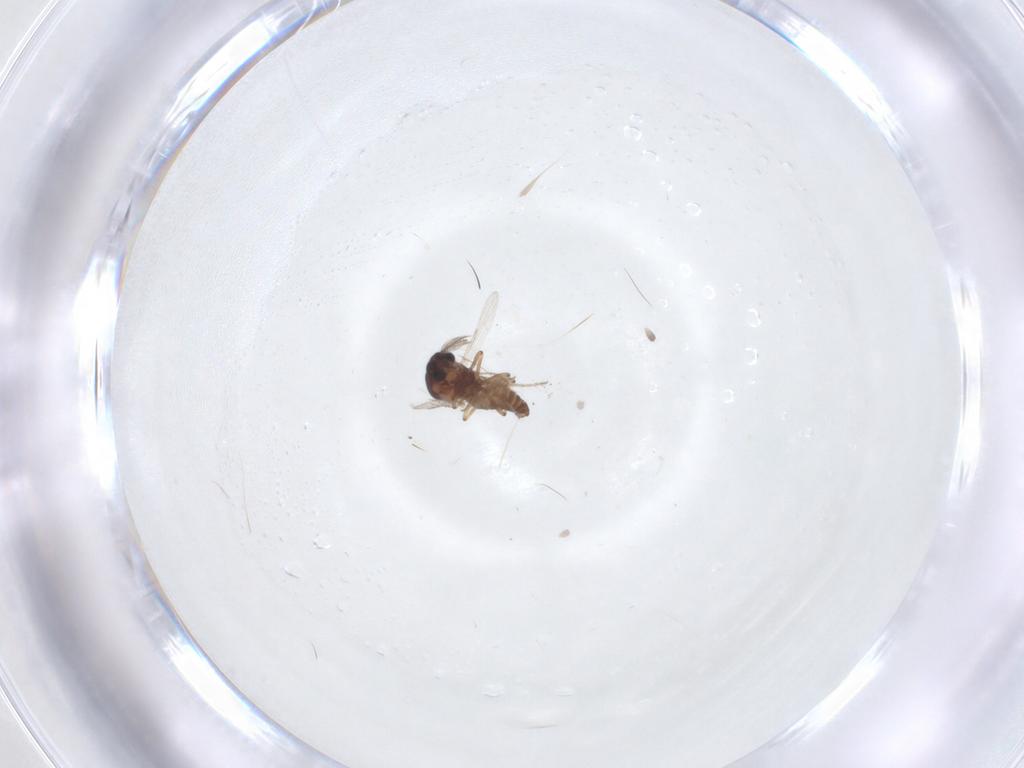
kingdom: Animalia
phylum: Arthropoda
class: Insecta
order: Diptera
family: Ceratopogonidae
